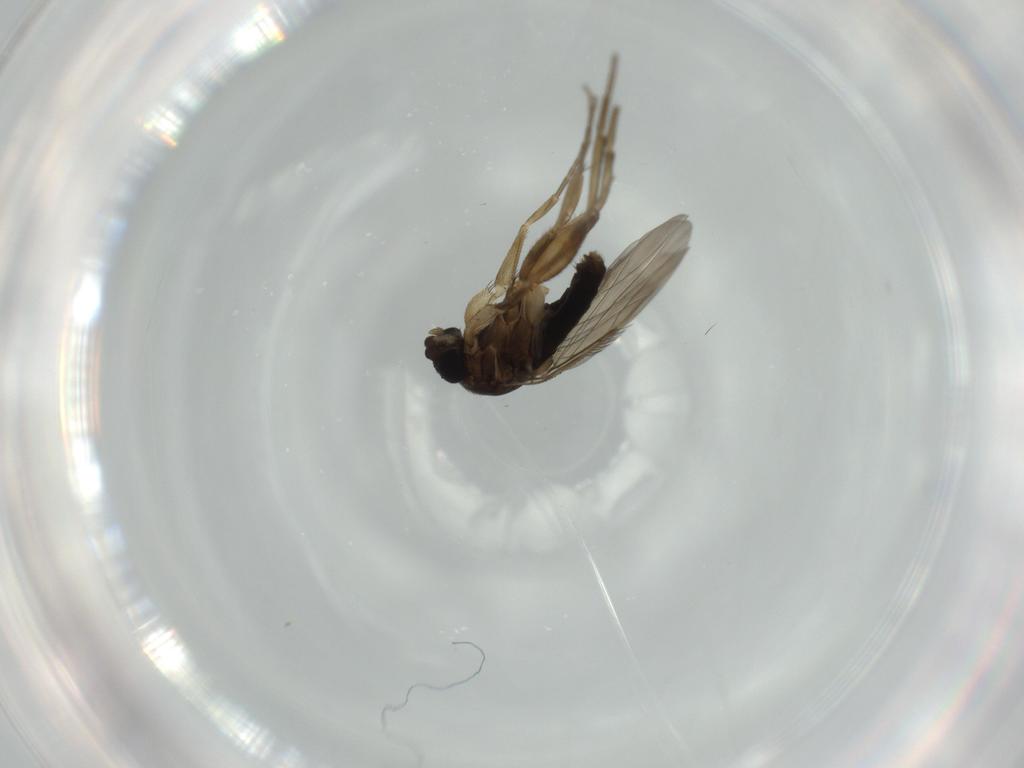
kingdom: Animalia
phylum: Arthropoda
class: Insecta
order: Diptera
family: Phoridae
